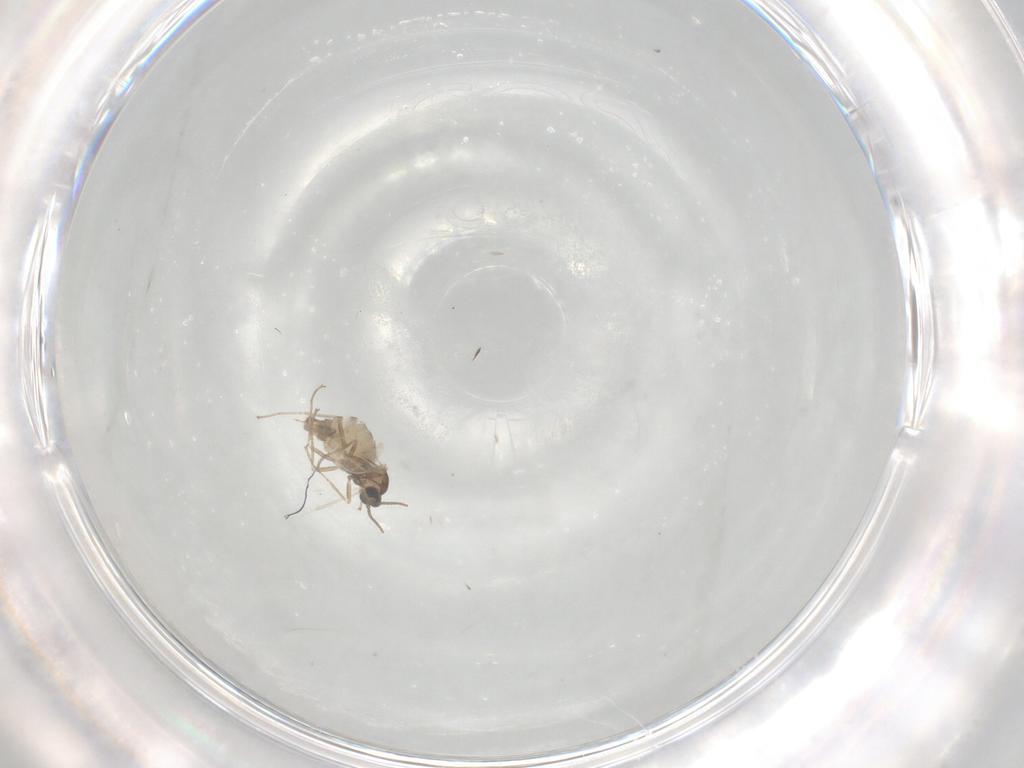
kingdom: Animalia
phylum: Arthropoda
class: Insecta
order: Diptera
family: Cecidomyiidae
